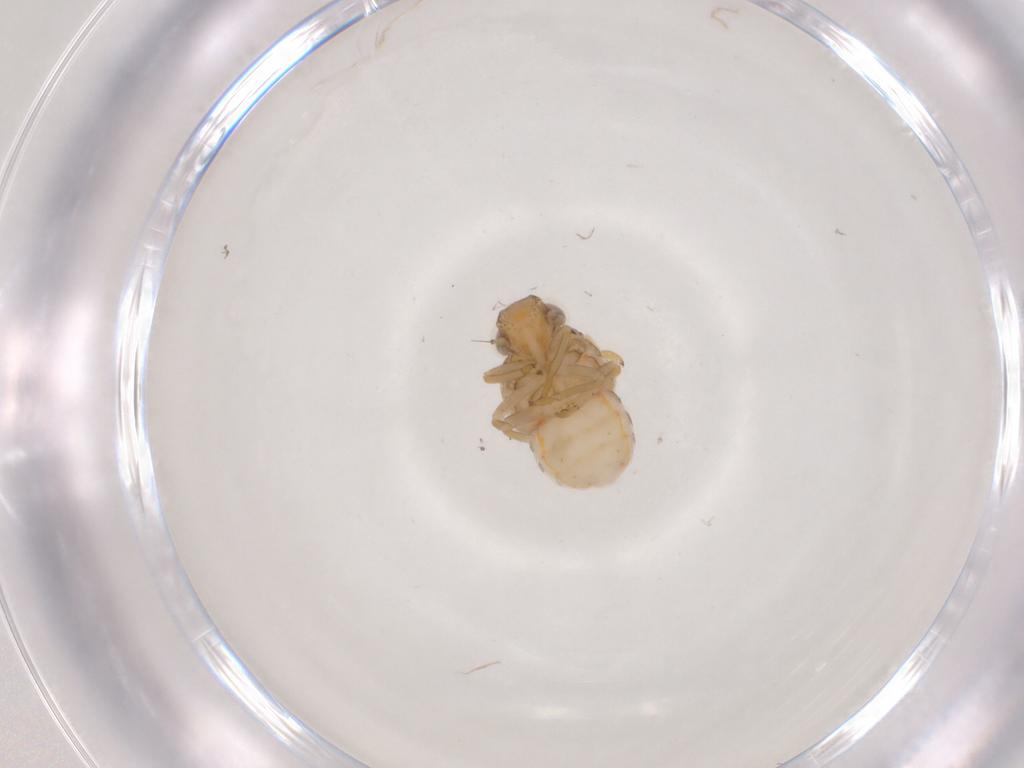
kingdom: Animalia
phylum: Arthropoda
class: Insecta
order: Hemiptera
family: Issidae
